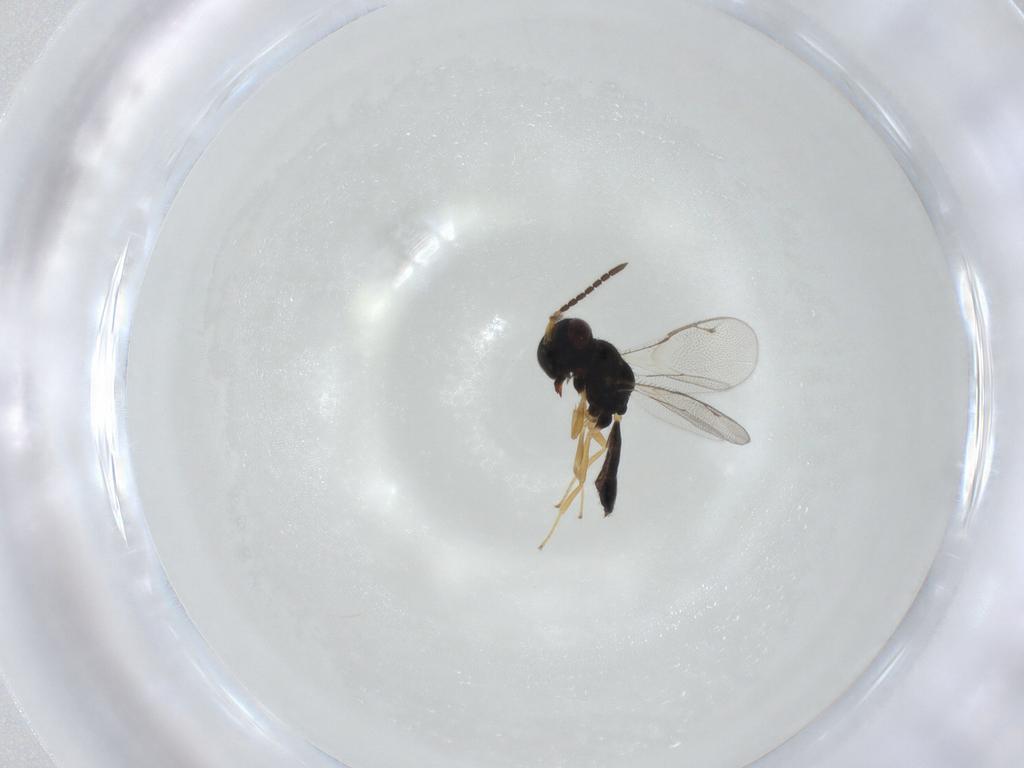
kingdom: Animalia
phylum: Arthropoda
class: Insecta
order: Hymenoptera
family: Pteromalidae
